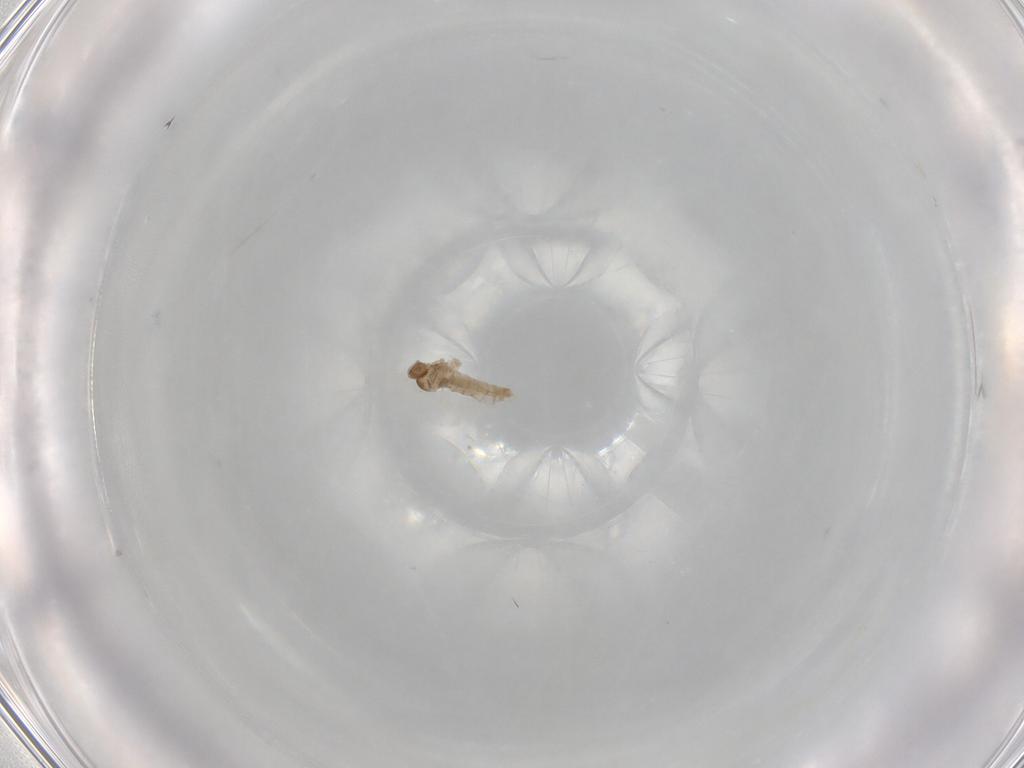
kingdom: Animalia
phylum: Arthropoda
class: Insecta
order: Diptera
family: Cecidomyiidae
